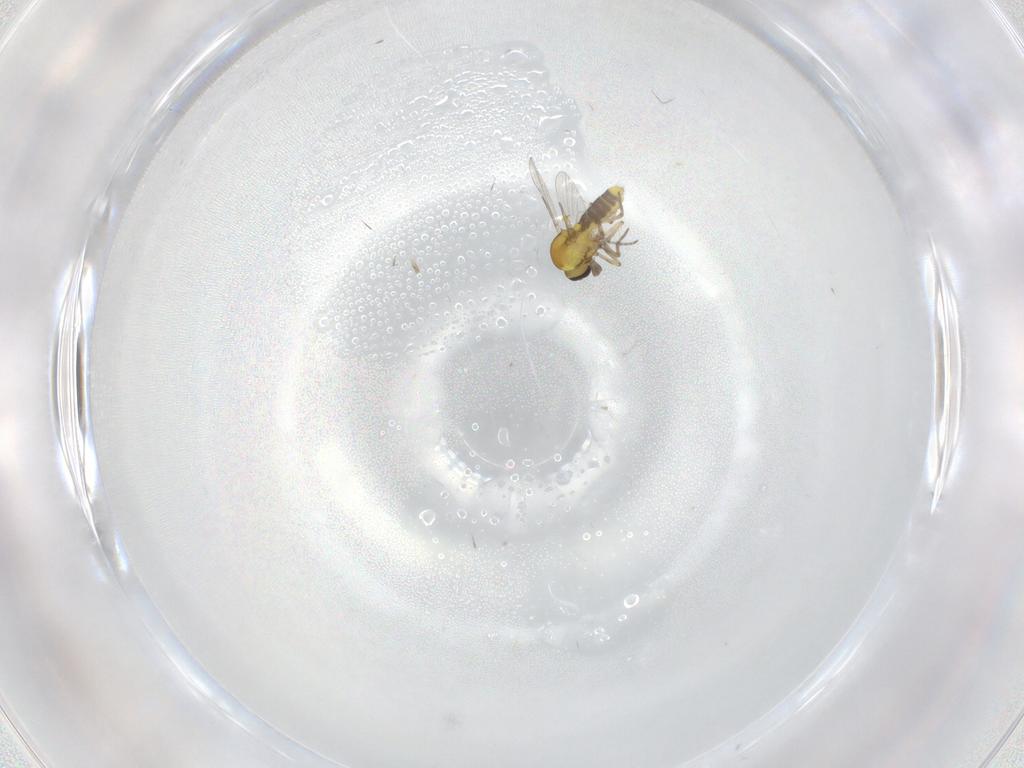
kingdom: Animalia
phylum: Arthropoda
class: Insecta
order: Diptera
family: Ceratopogonidae
